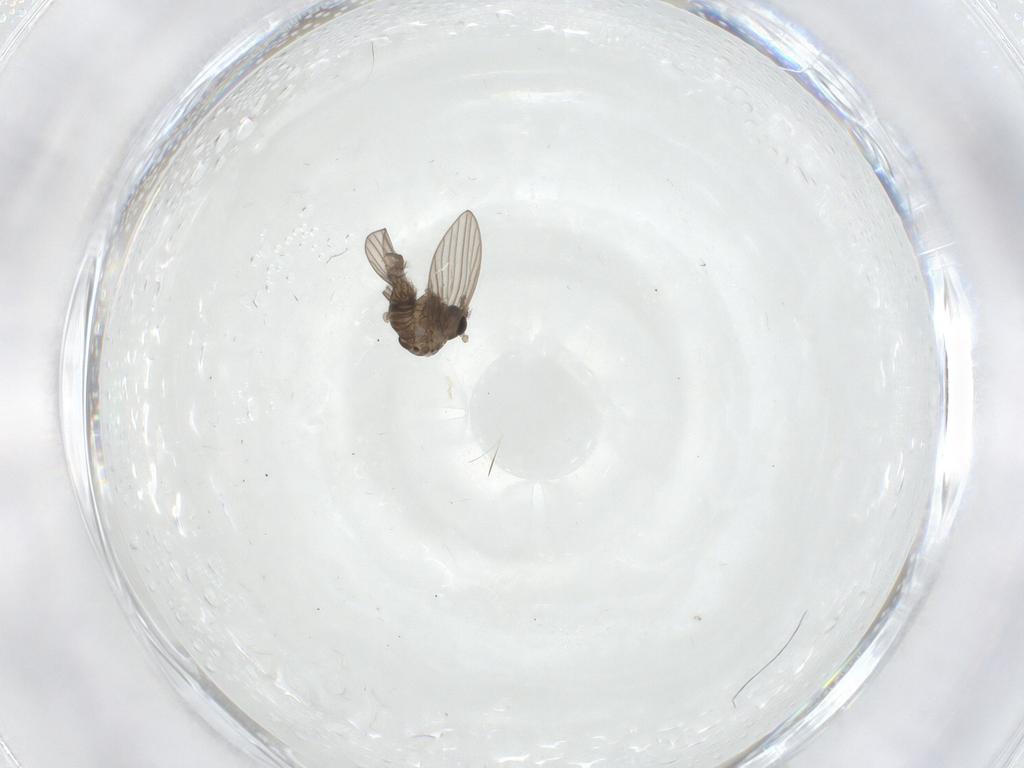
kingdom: Animalia
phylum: Arthropoda
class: Insecta
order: Diptera
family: Psychodidae
